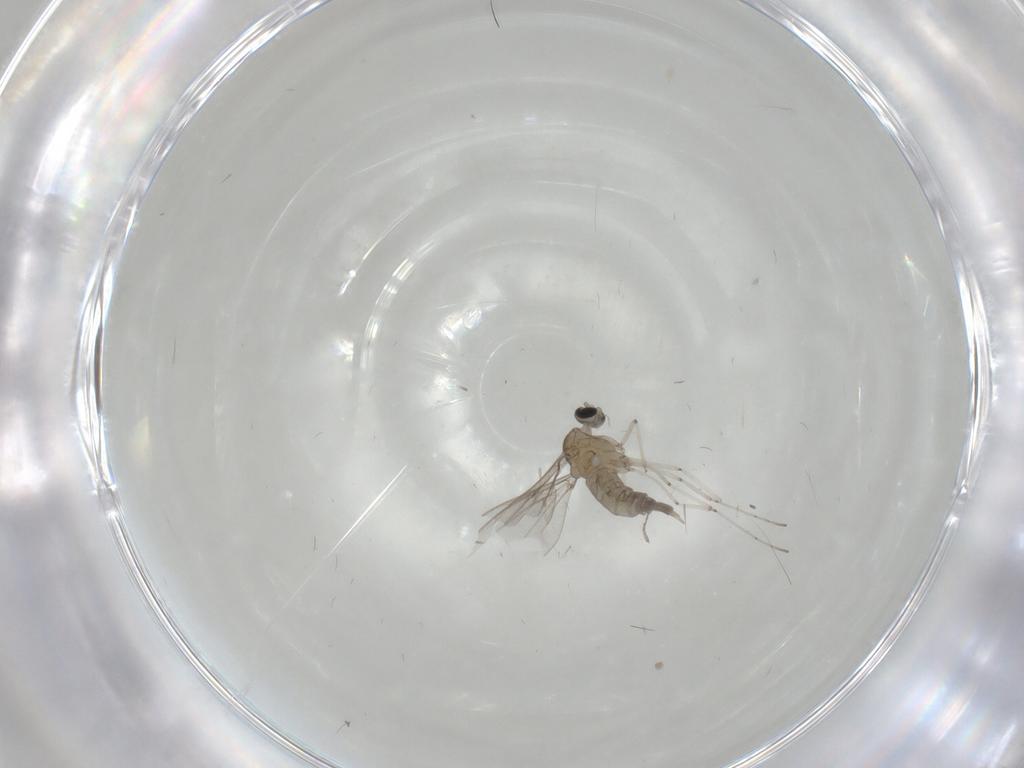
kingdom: Animalia
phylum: Arthropoda
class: Insecta
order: Diptera
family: Cecidomyiidae
